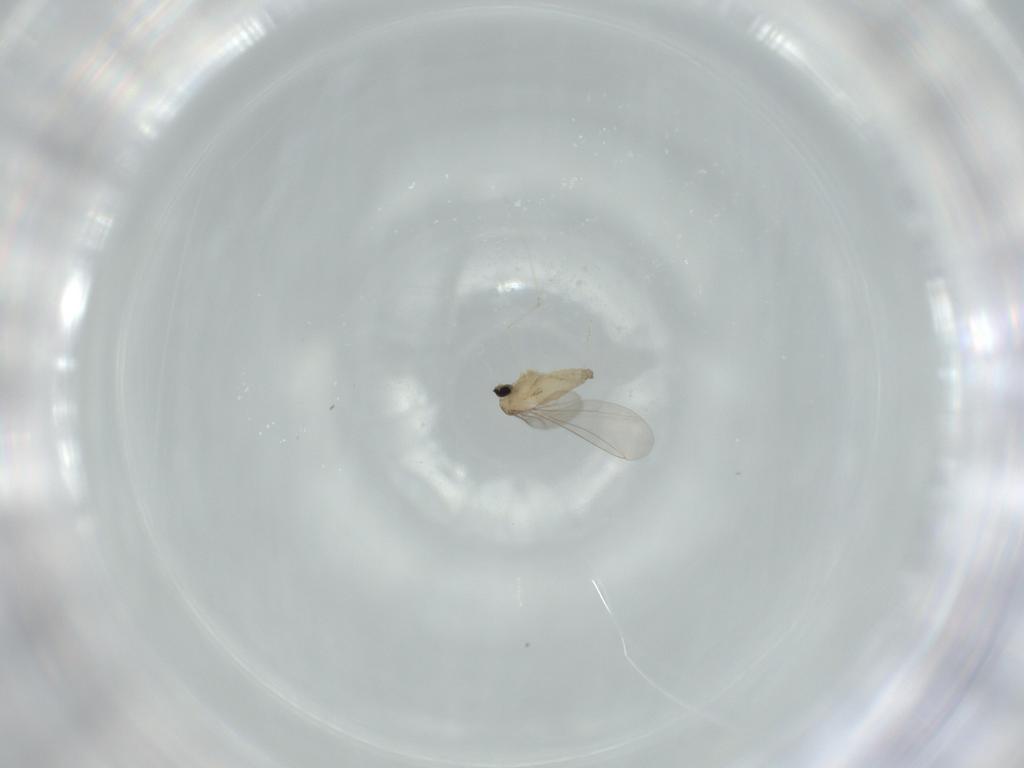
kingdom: Animalia
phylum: Arthropoda
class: Insecta
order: Diptera
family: Cecidomyiidae
